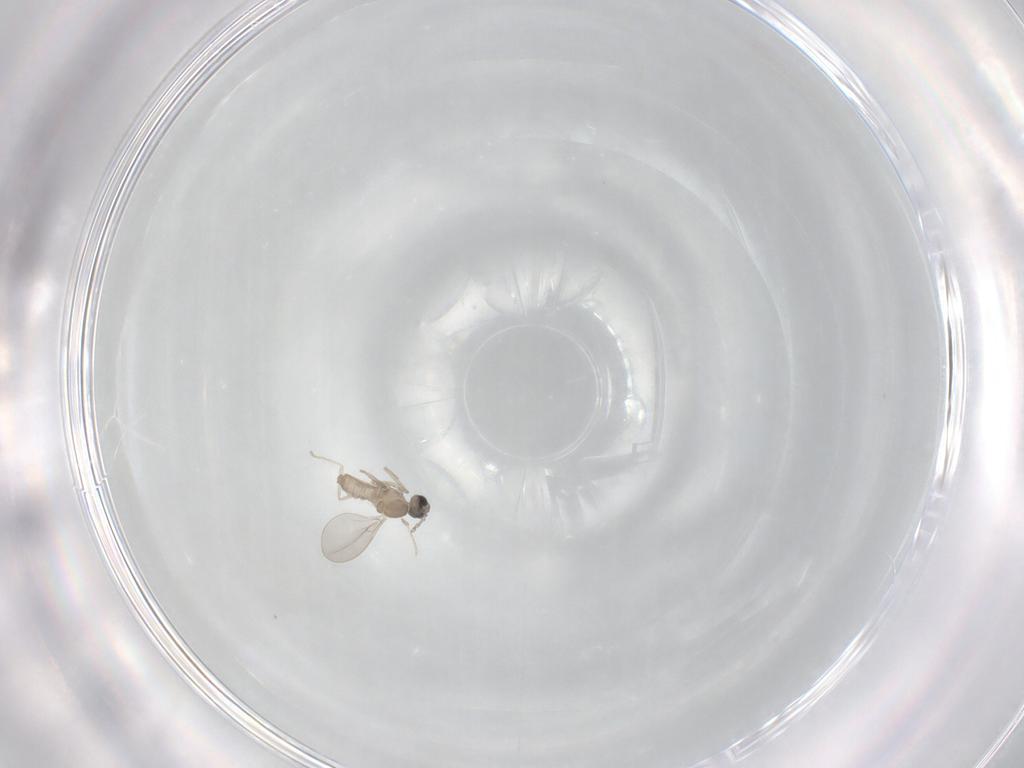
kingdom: Animalia
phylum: Arthropoda
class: Insecta
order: Diptera
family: Cecidomyiidae
